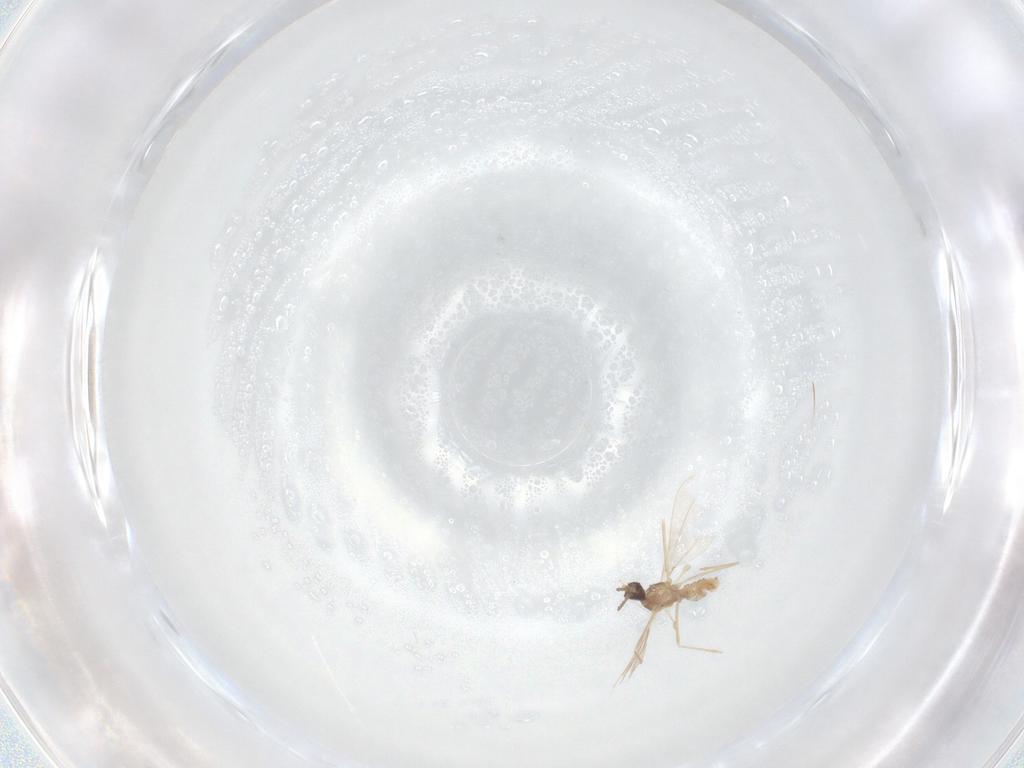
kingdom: Animalia
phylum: Arthropoda
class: Insecta
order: Diptera
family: Cecidomyiidae
